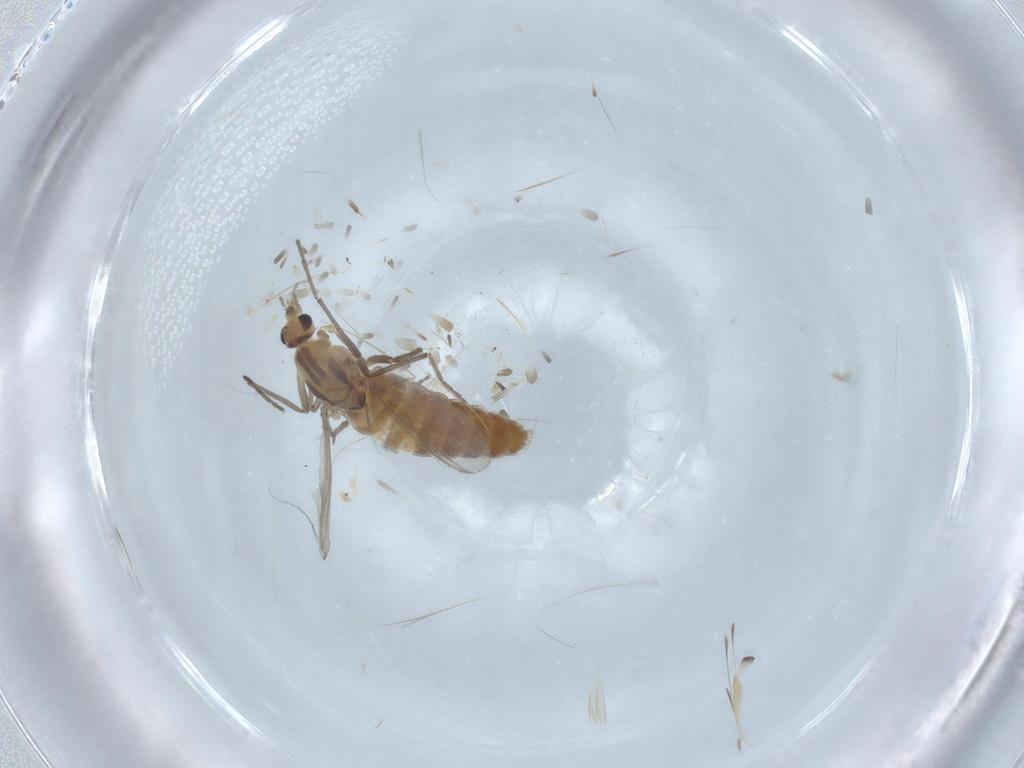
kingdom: Animalia
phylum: Arthropoda
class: Insecta
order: Diptera
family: Chironomidae
